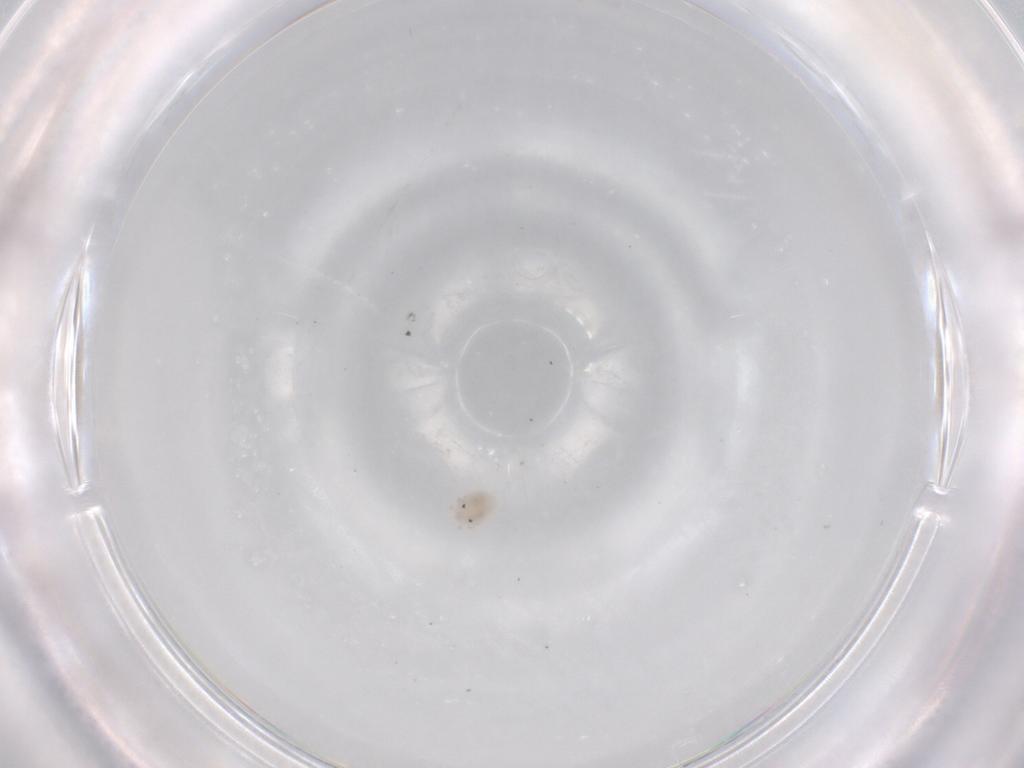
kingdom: Animalia
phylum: Arthropoda
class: Arachnida
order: Trombidiformes
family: Lebertiidae
